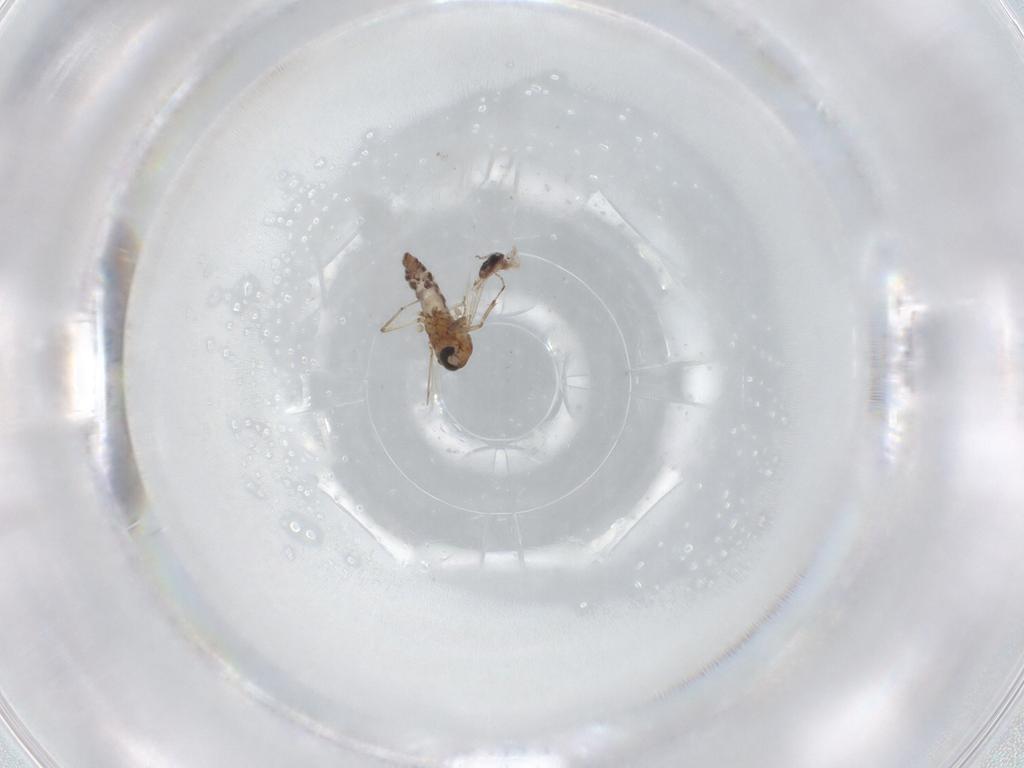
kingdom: Animalia
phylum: Arthropoda
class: Insecta
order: Diptera
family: Ceratopogonidae
